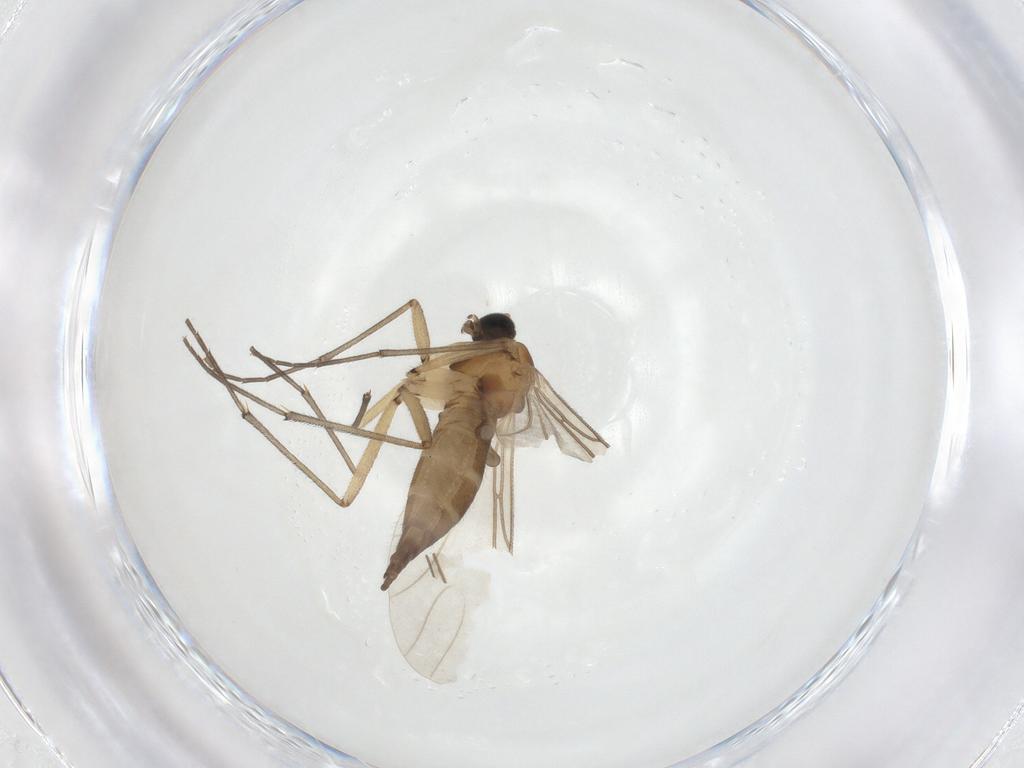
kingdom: Animalia
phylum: Arthropoda
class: Insecta
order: Diptera
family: Sciaridae
